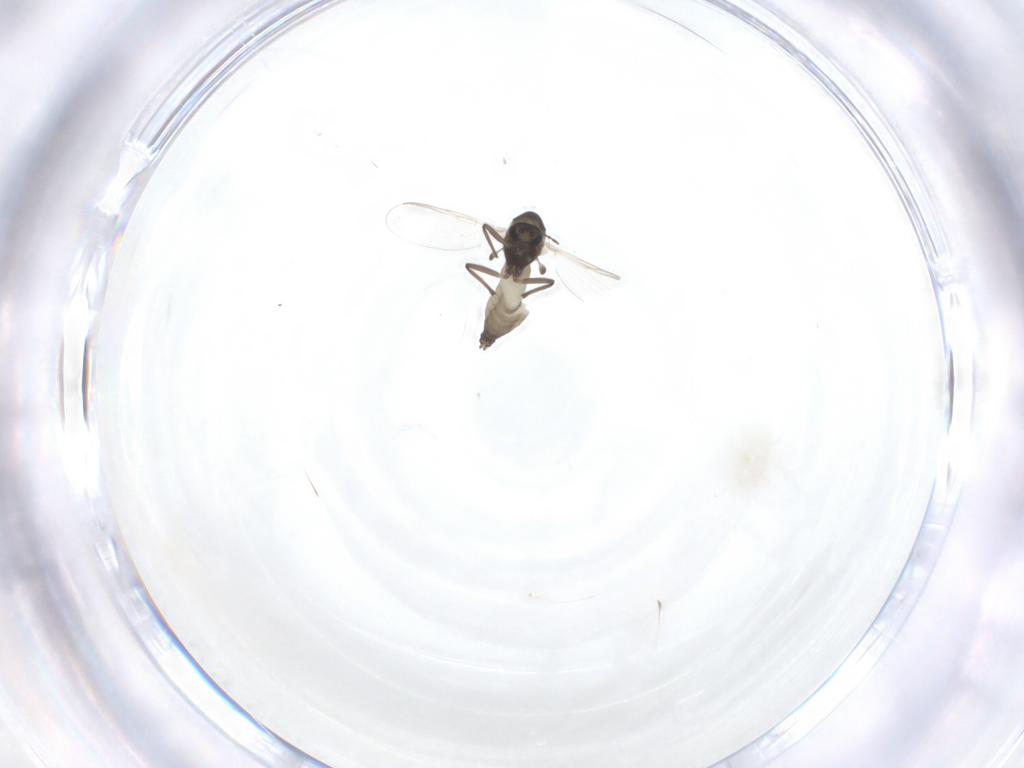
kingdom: Animalia
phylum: Arthropoda
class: Insecta
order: Diptera
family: Chironomidae
